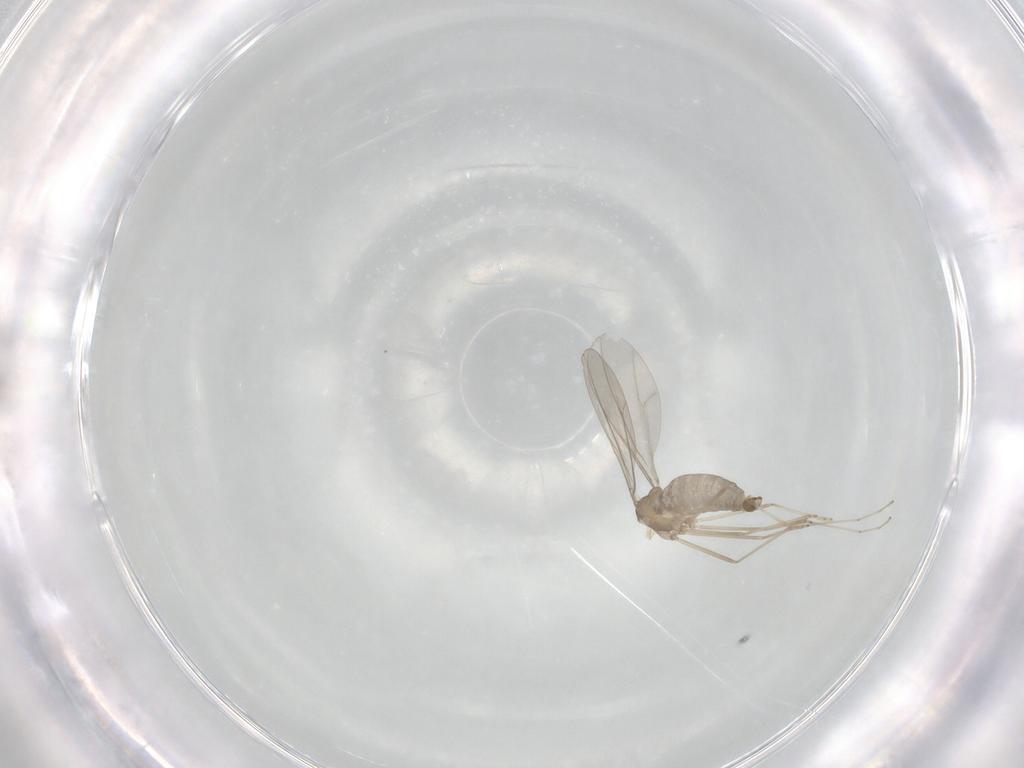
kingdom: Animalia
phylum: Arthropoda
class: Insecta
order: Diptera
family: Cecidomyiidae
